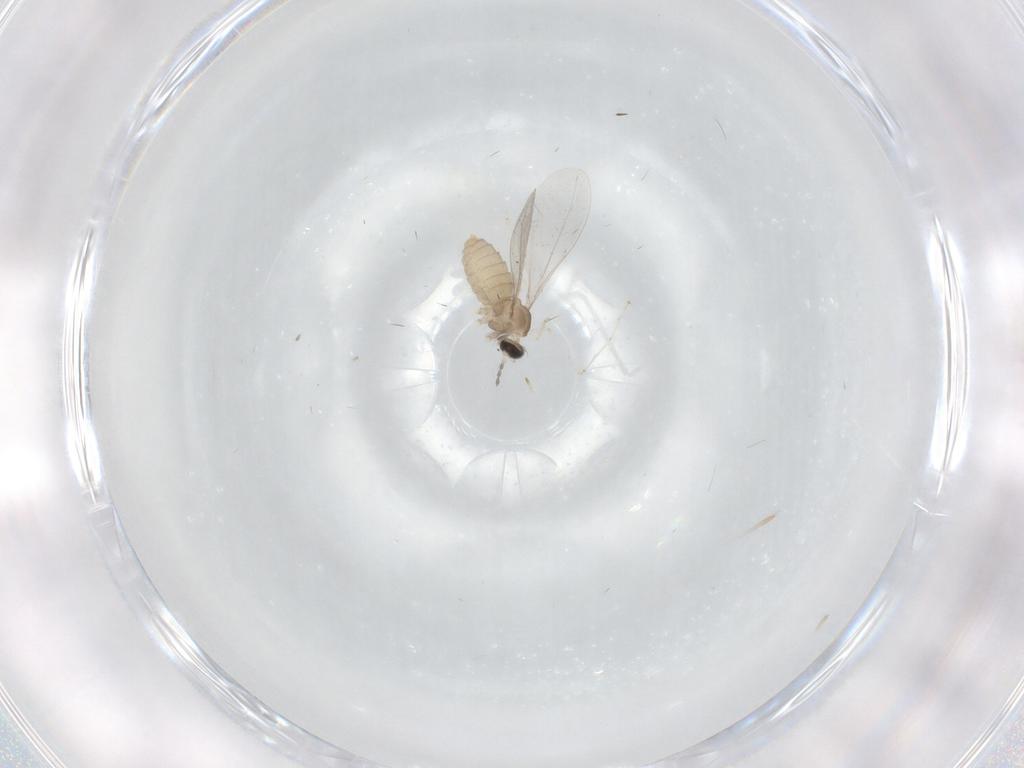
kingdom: Animalia
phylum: Arthropoda
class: Insecta
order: Diptera
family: Cecidomyiidae
